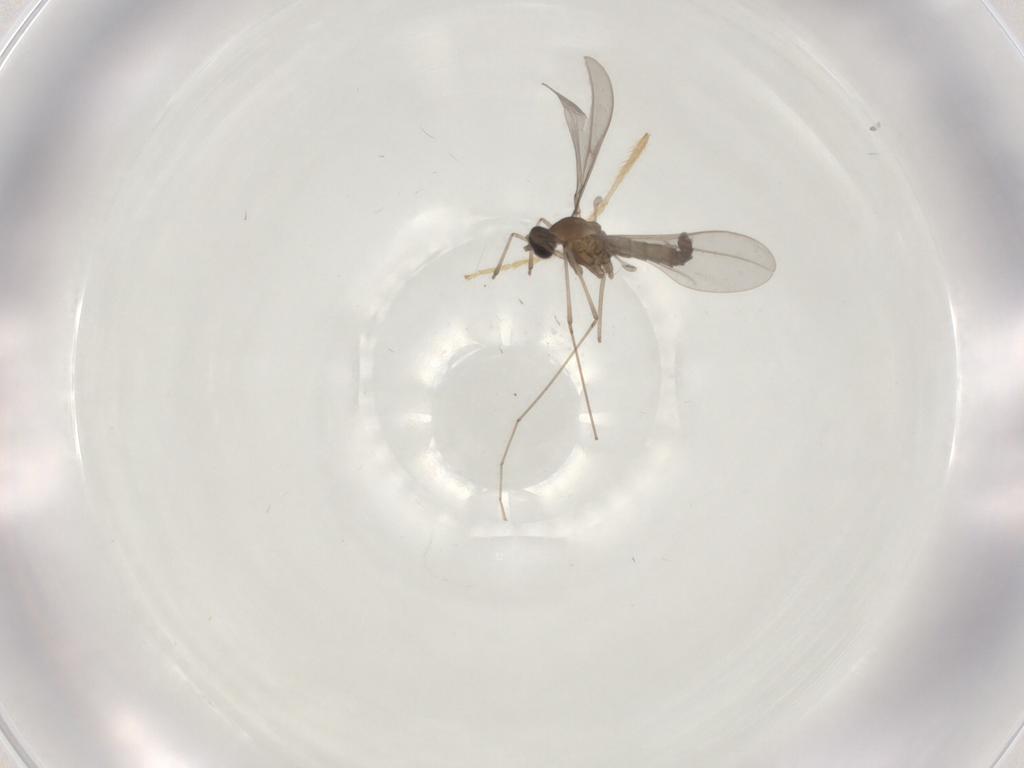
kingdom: Animalia
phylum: Arthropoda
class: Insecta
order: Diptera
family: Chironomidae
